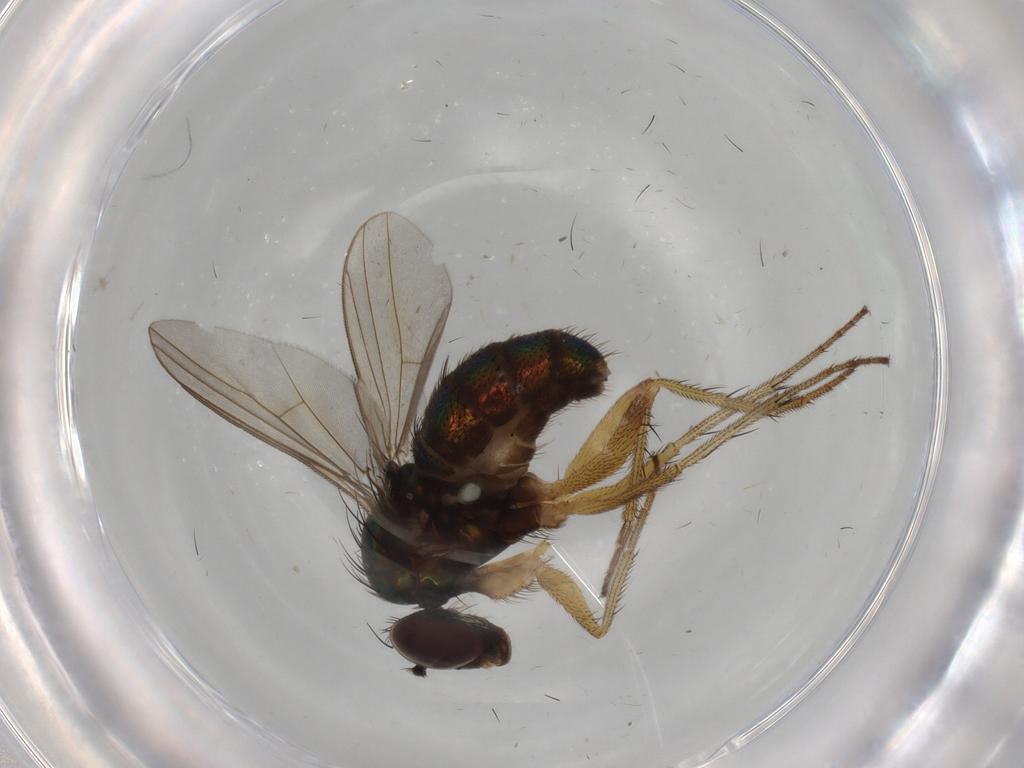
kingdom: Animalia
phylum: Arthropoda
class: Insecta
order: Diptera
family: Dolichopodidae
